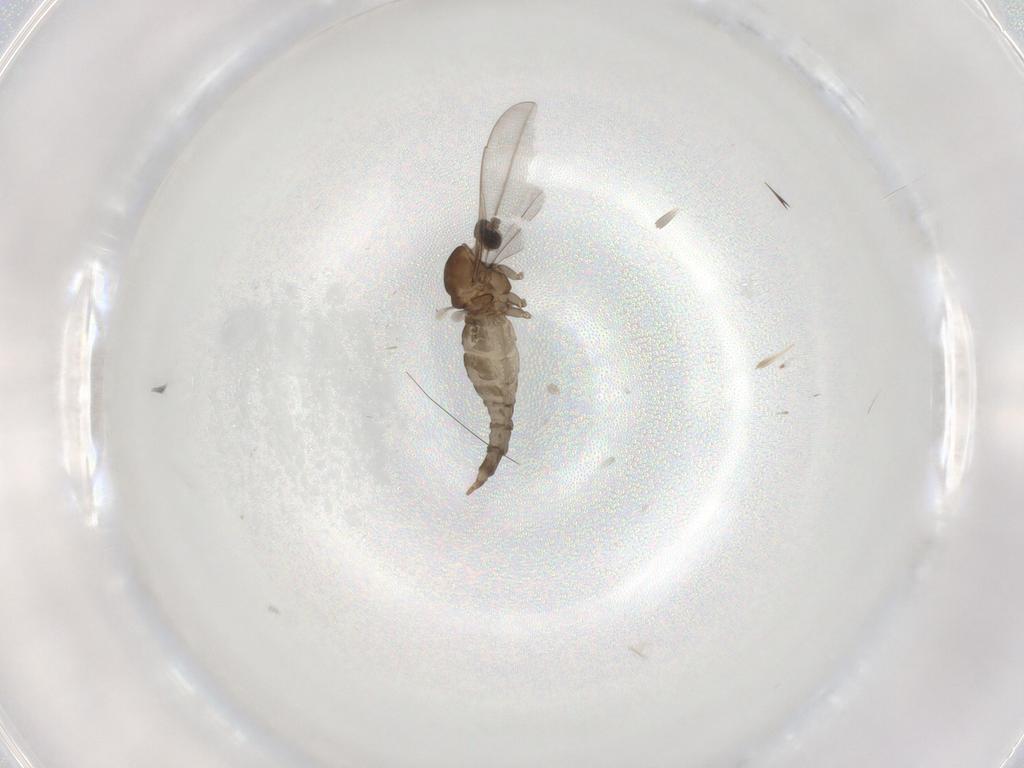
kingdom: Animalia
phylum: Arthropoda
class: Insecta
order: Diptera
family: Cecidomyiidae
